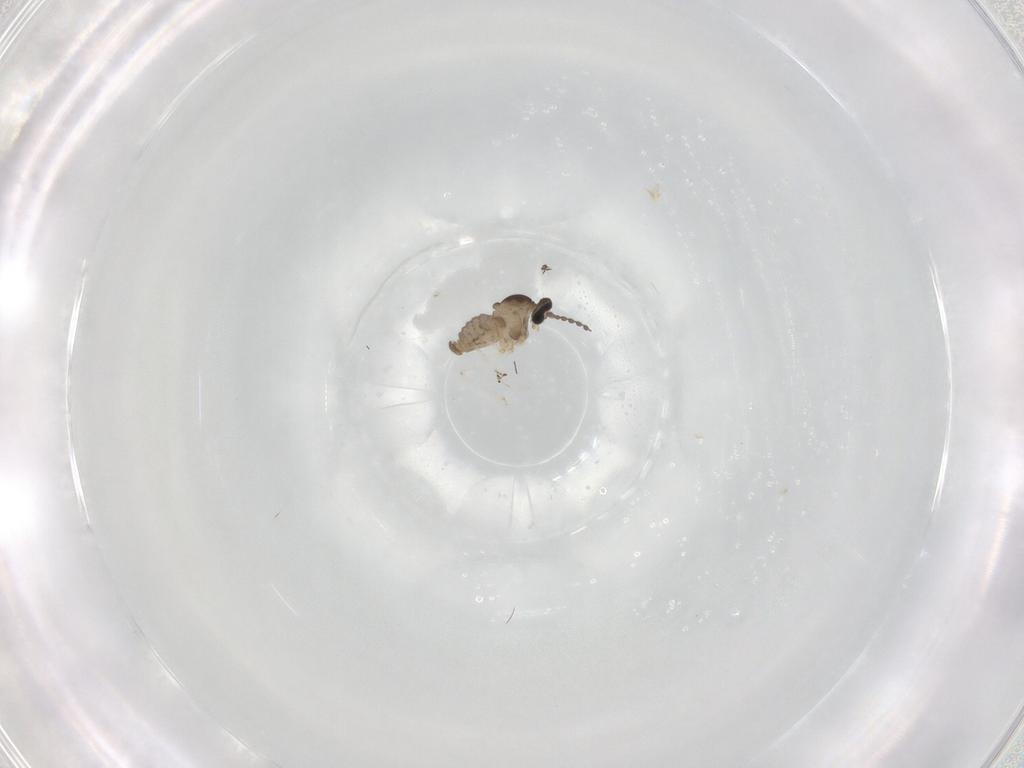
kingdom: Animalia
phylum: Arthropoda
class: Insecta
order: Diptera
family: Cecidomyiidae
